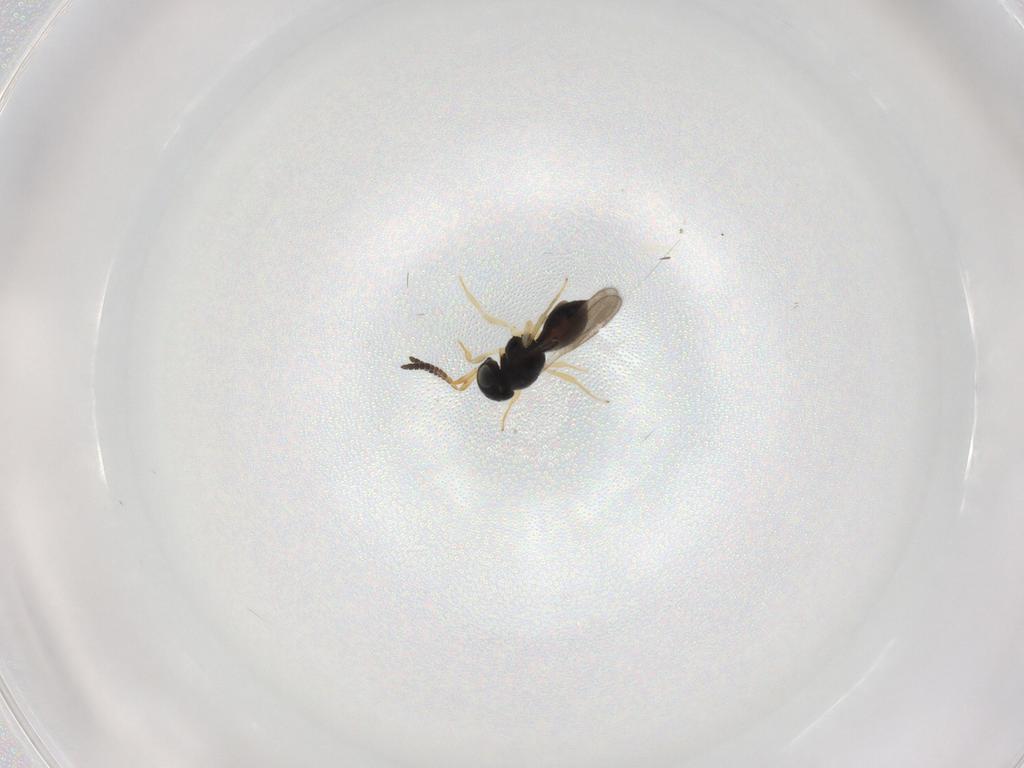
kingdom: Animalia
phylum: Arthropoda
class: Insecta
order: Hymenoptera
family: Scelionidae
